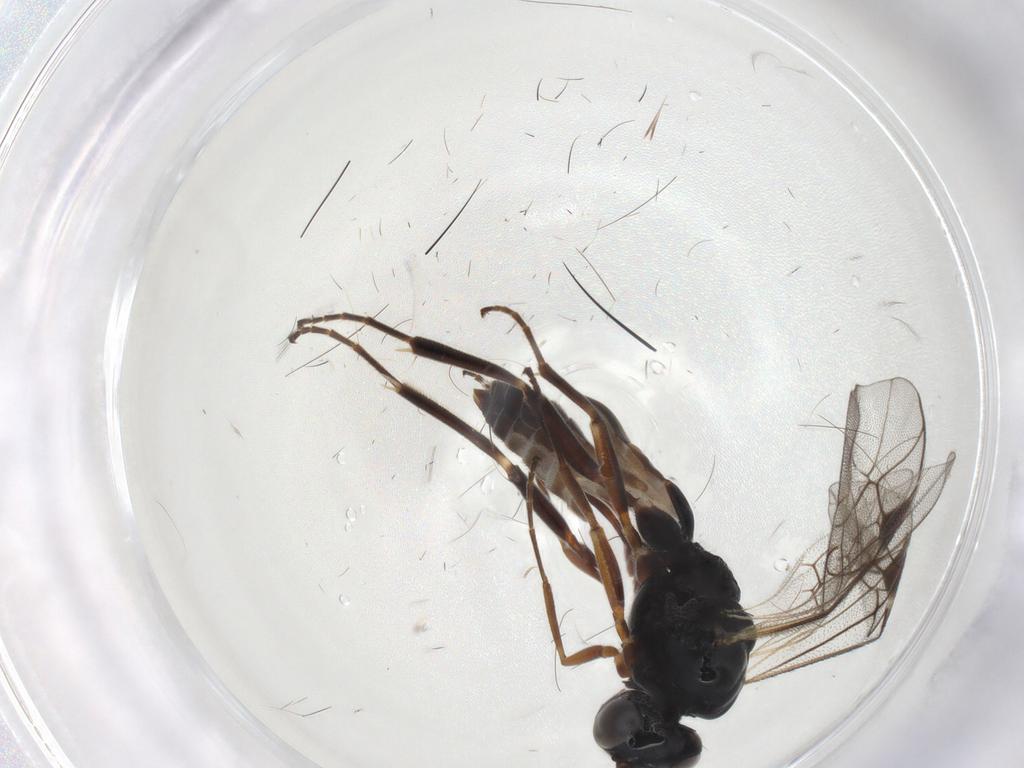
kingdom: Animalia
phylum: Arthropoda
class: Insecta
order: Hymenoptera
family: Ichneumonidae
